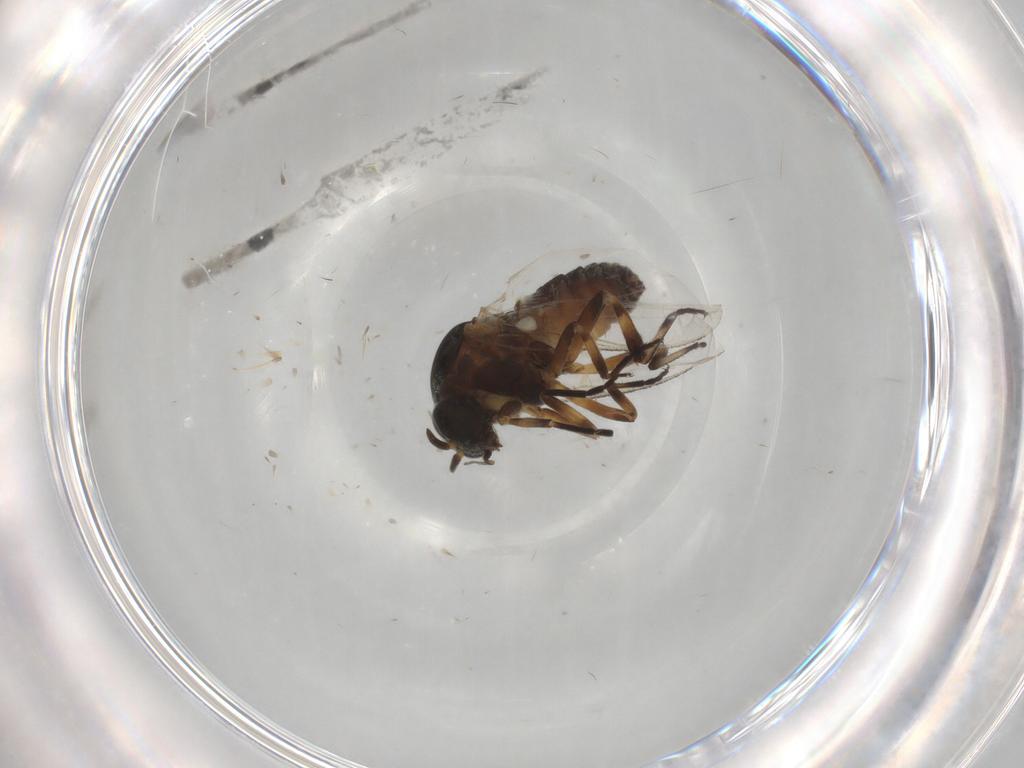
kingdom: Animalia
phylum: Arthropoda
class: Insecta
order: Diptera
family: Simuliidae
